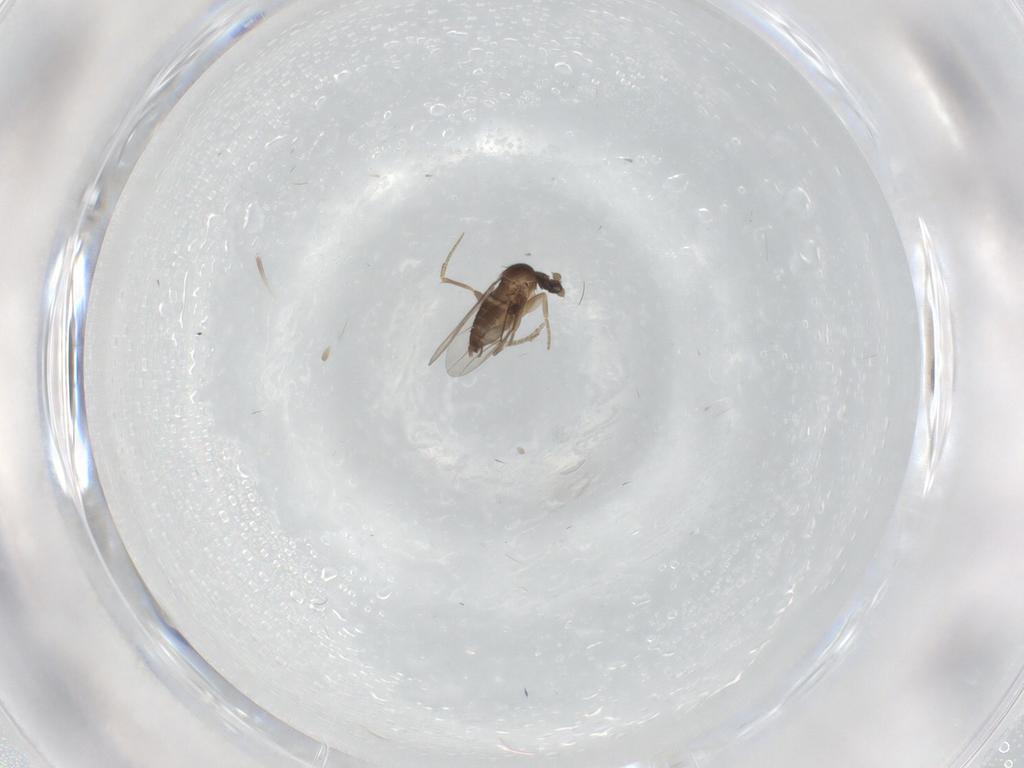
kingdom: Animalia
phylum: Arthropoda
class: Insecta
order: Diptera
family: Phoridae
